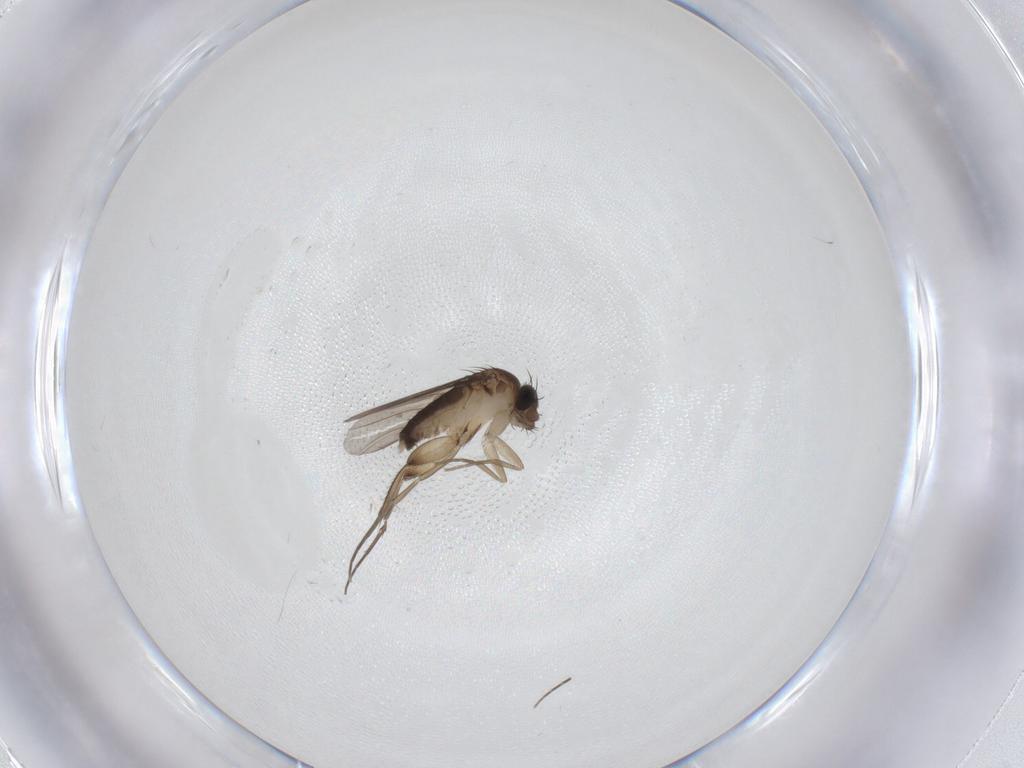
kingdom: Animalia
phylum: Arthropoda
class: Insecta
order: Diptera
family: Phoridae
